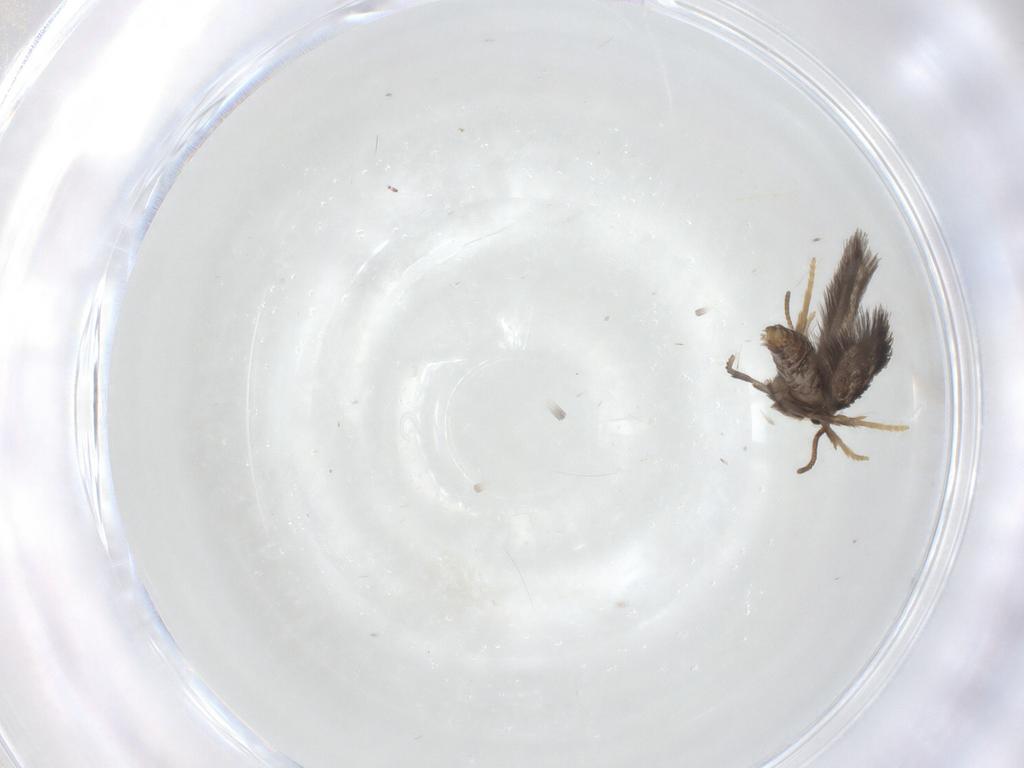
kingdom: Animalia
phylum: Arthropoda
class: Insecta
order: Lepidoptera
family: Nepticulidae
